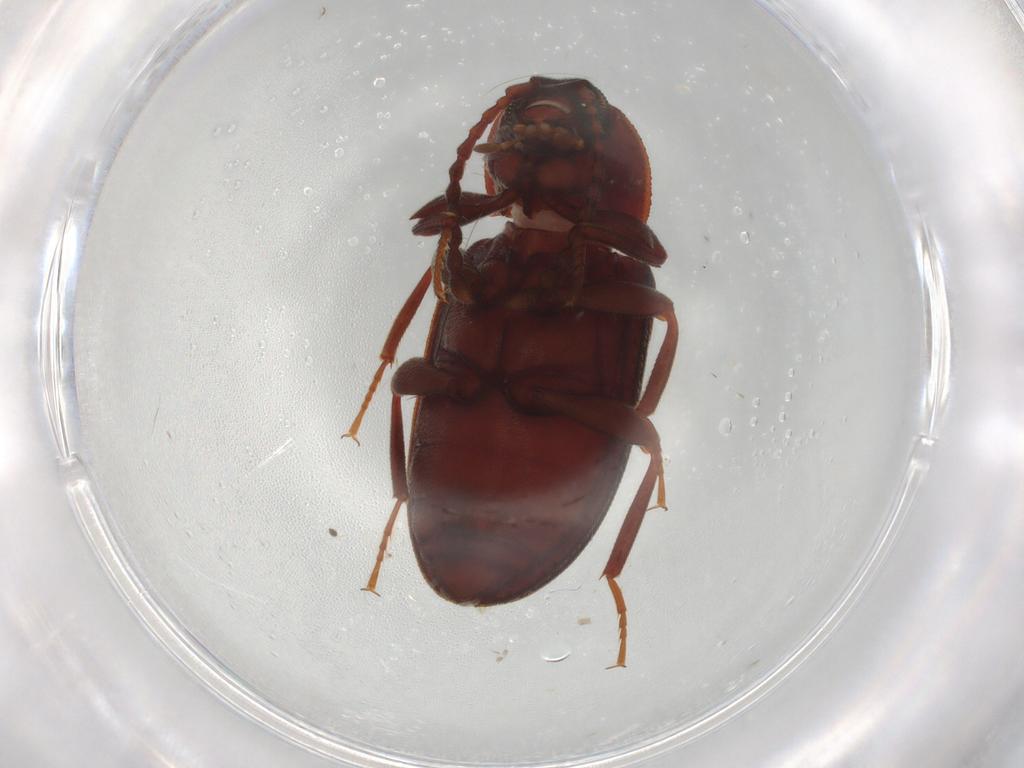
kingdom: Animalia
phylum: Arthropoda
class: Insecta
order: Coleoptera
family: Tenebrionidae
